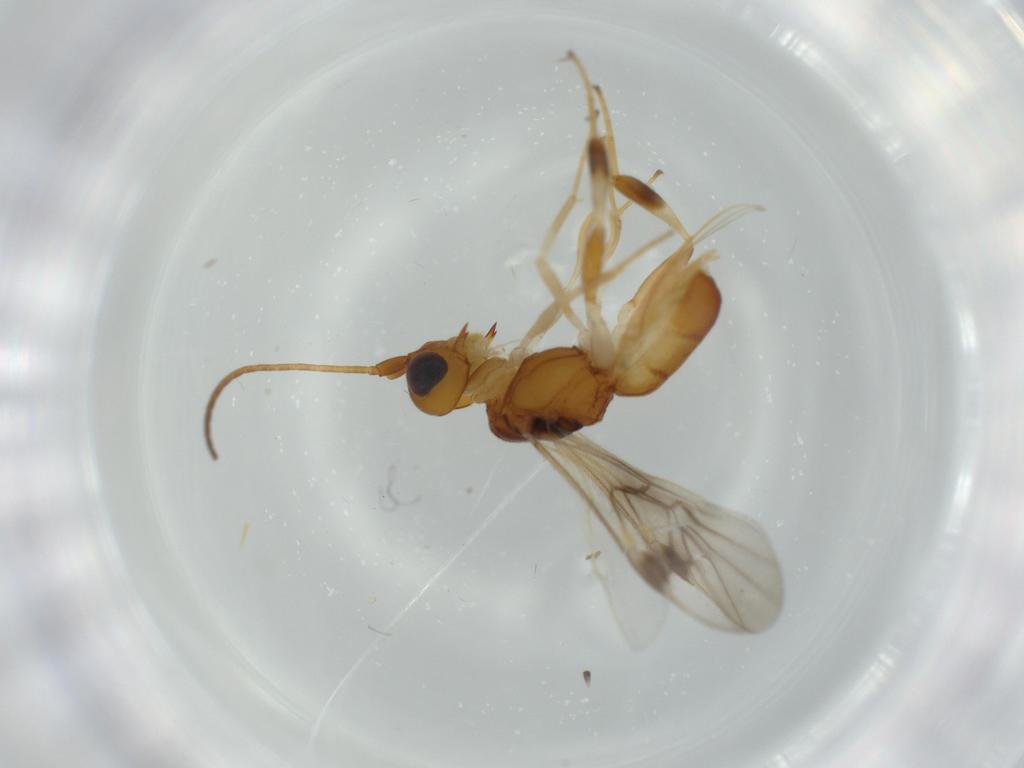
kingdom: Animalia
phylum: Arthropoda
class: Insecta
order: Hymenoptera
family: Platygastridae
